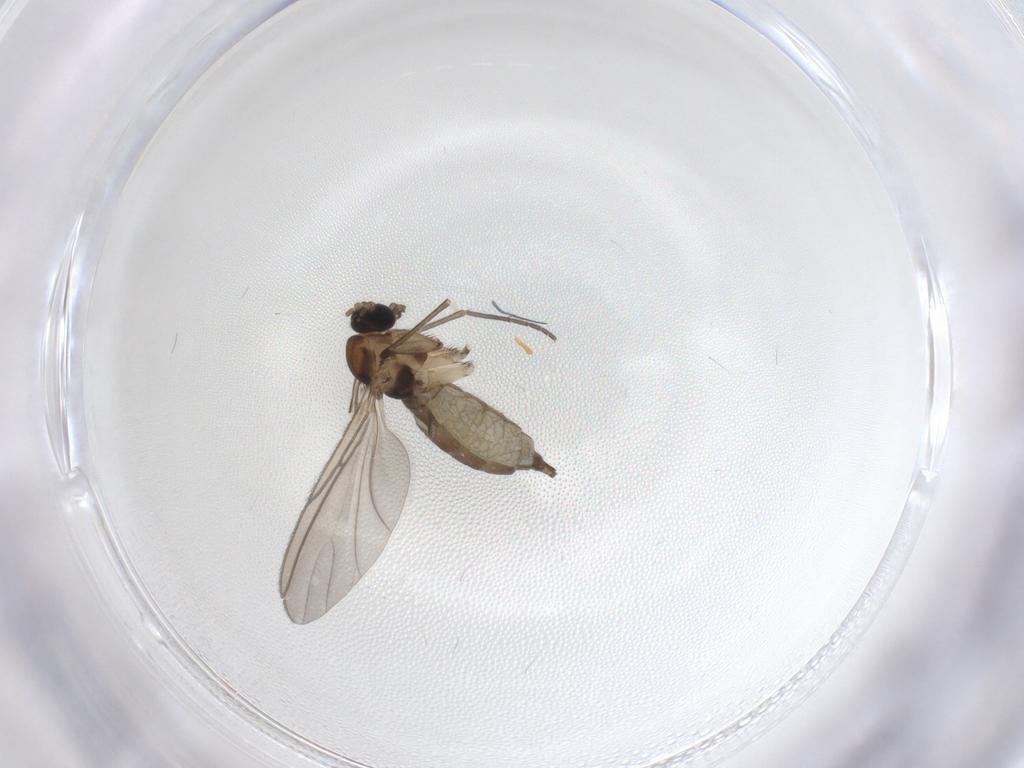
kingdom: Animalia
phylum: Arthropoda
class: Insecta
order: Diptera
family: Sciaridae
